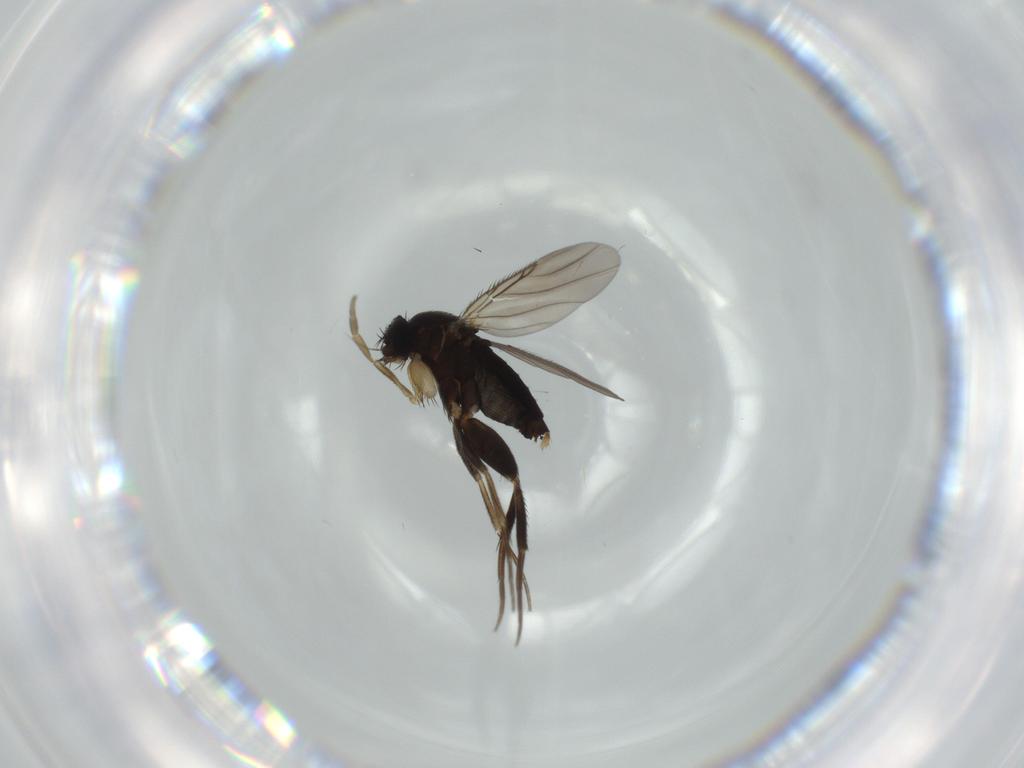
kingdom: Animalia
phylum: Arthropoda
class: Insecta
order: Diptera
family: Phoridae
